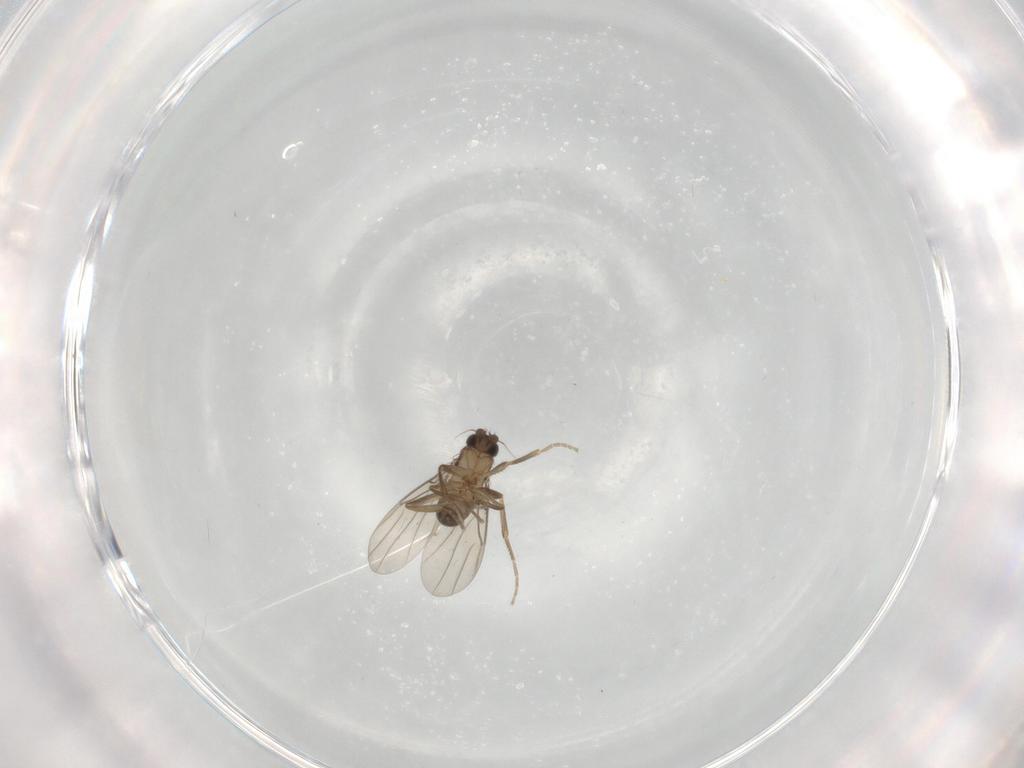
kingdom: Animalia
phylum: Arthropoda
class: Insecta
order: Diptera
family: Phoridae
